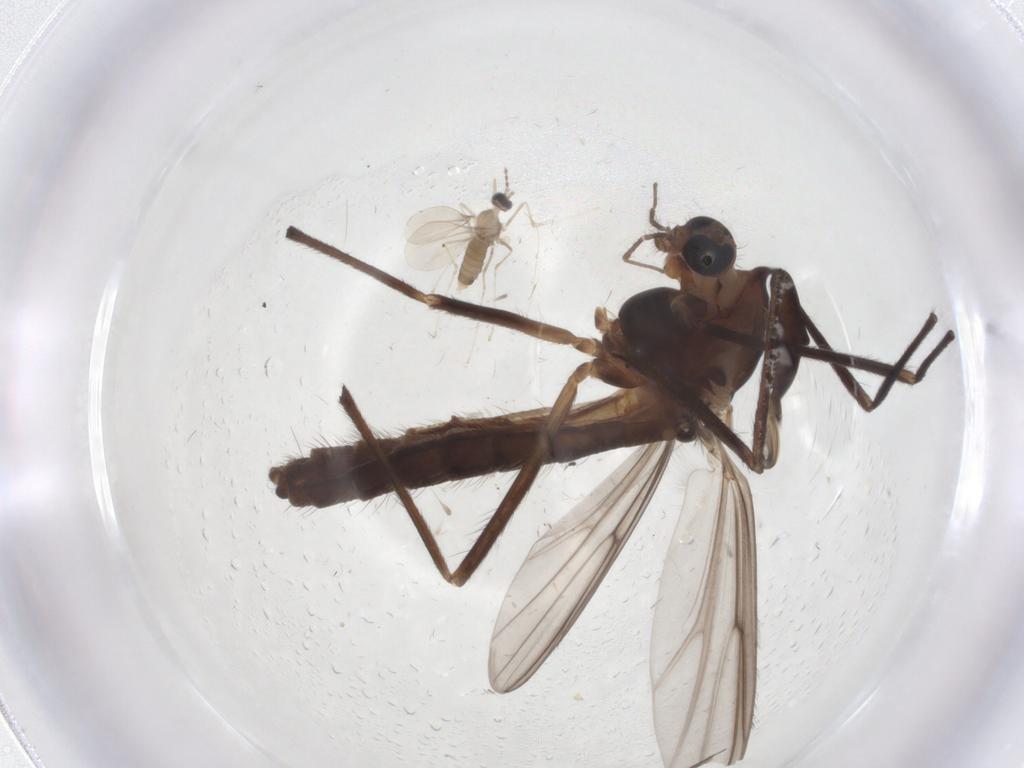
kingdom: Animalia
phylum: Arthropoda
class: Insecta
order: Diptera
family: Chironomidae
